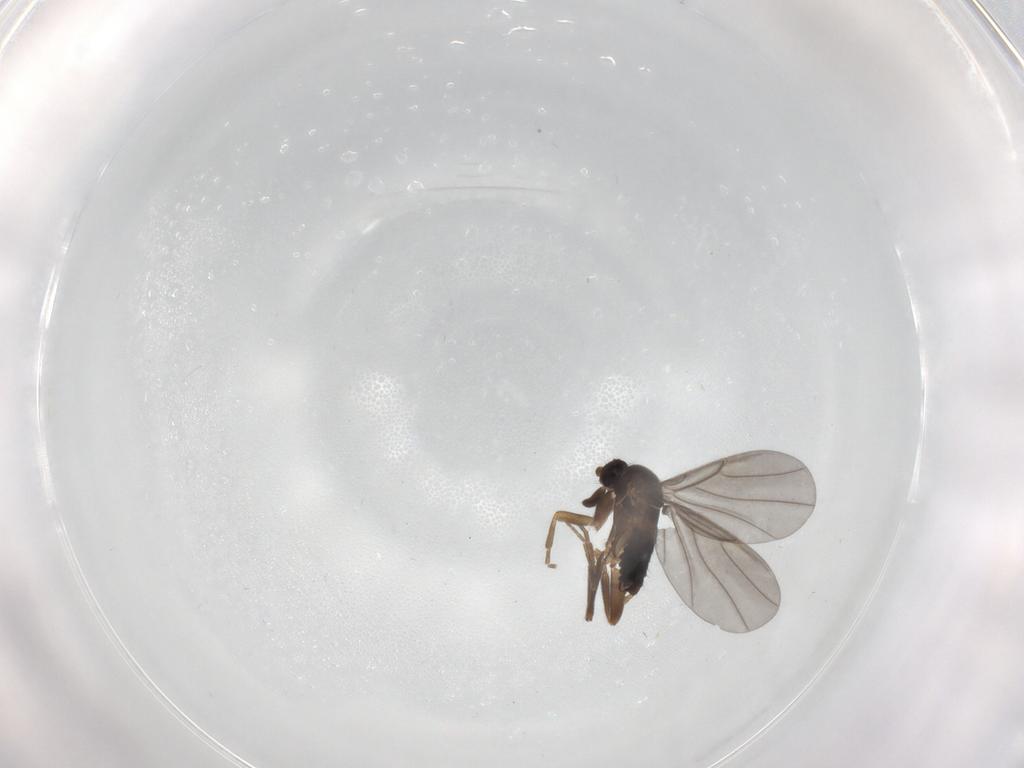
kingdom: Animalia
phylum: Arthropoda
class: Insecta
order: Diptera
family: Phoridae
